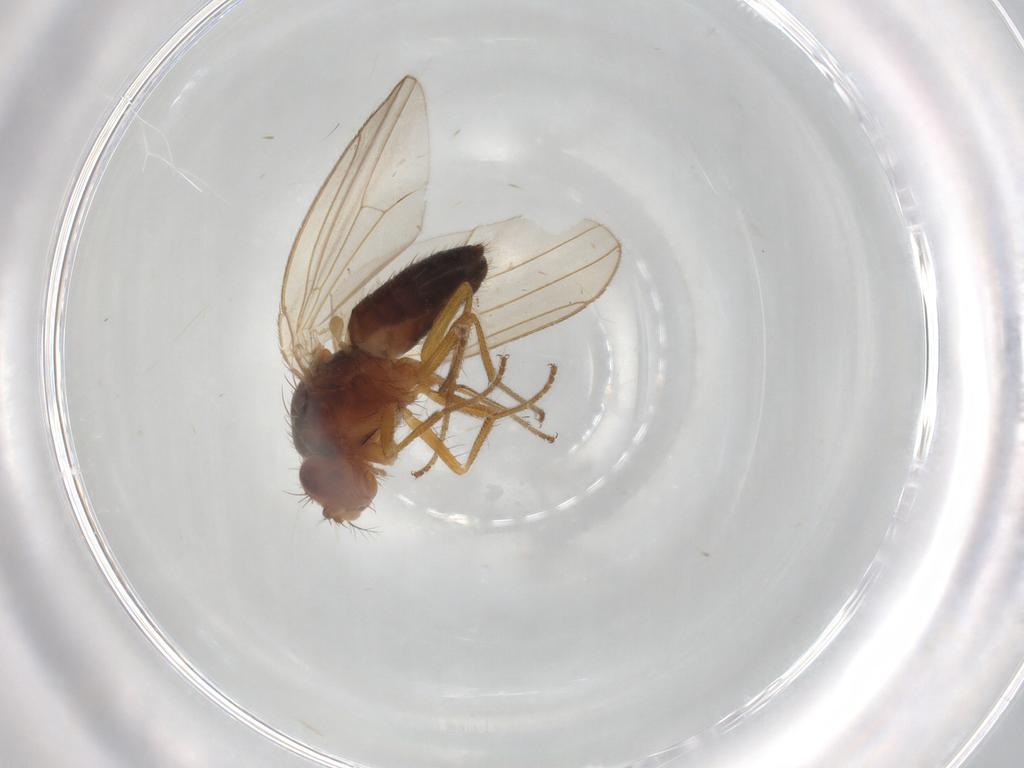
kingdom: Animalia
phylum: Arthropoda
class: Insecta
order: Diptera
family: Drosophilidae
